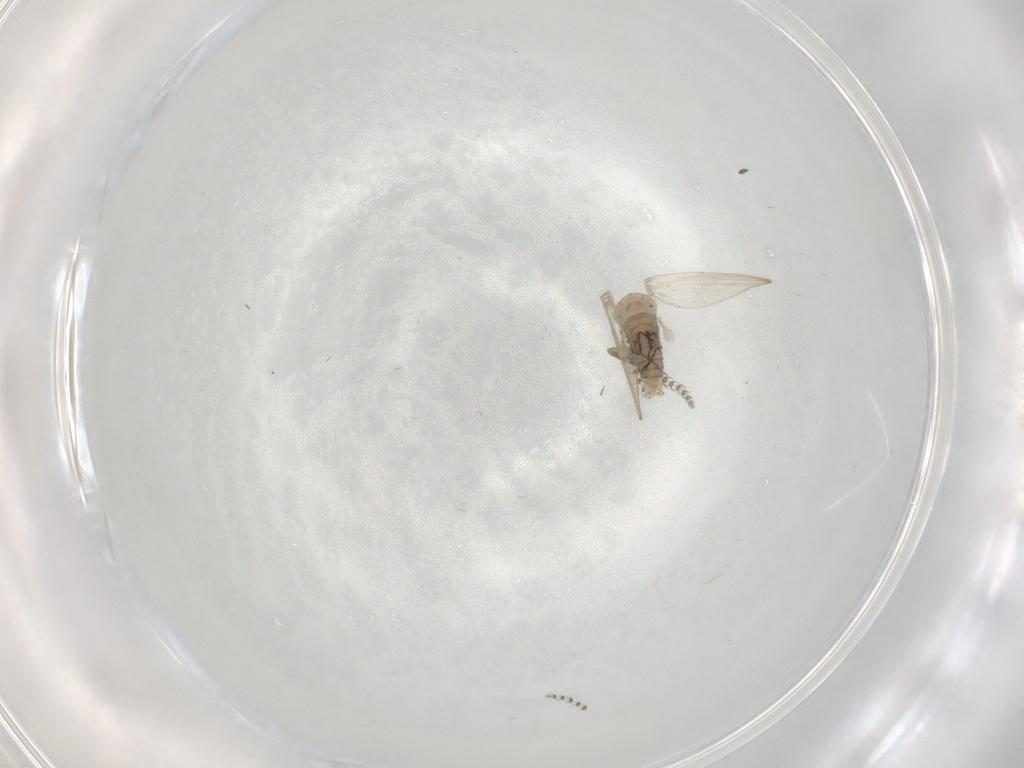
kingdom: Animalia
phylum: Arthropoda
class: Insecta
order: Diptera
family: Psychodidae
